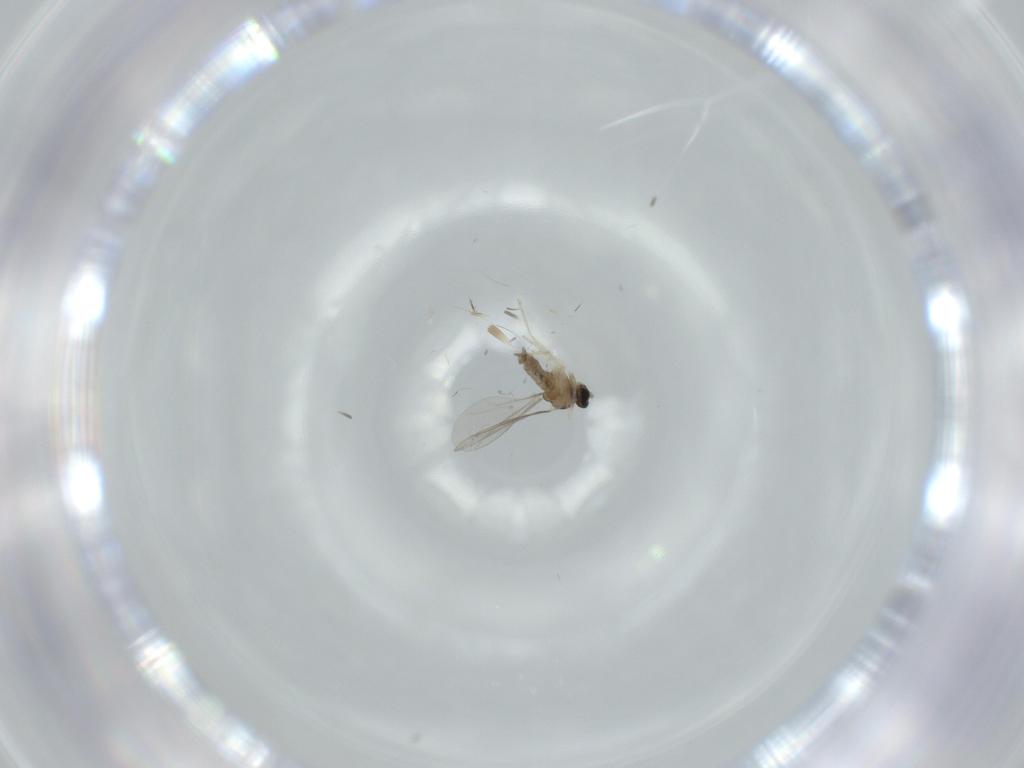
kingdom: Animalia
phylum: Arthropoda
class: Insecta
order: Diptera
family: Cecidomyiidae
